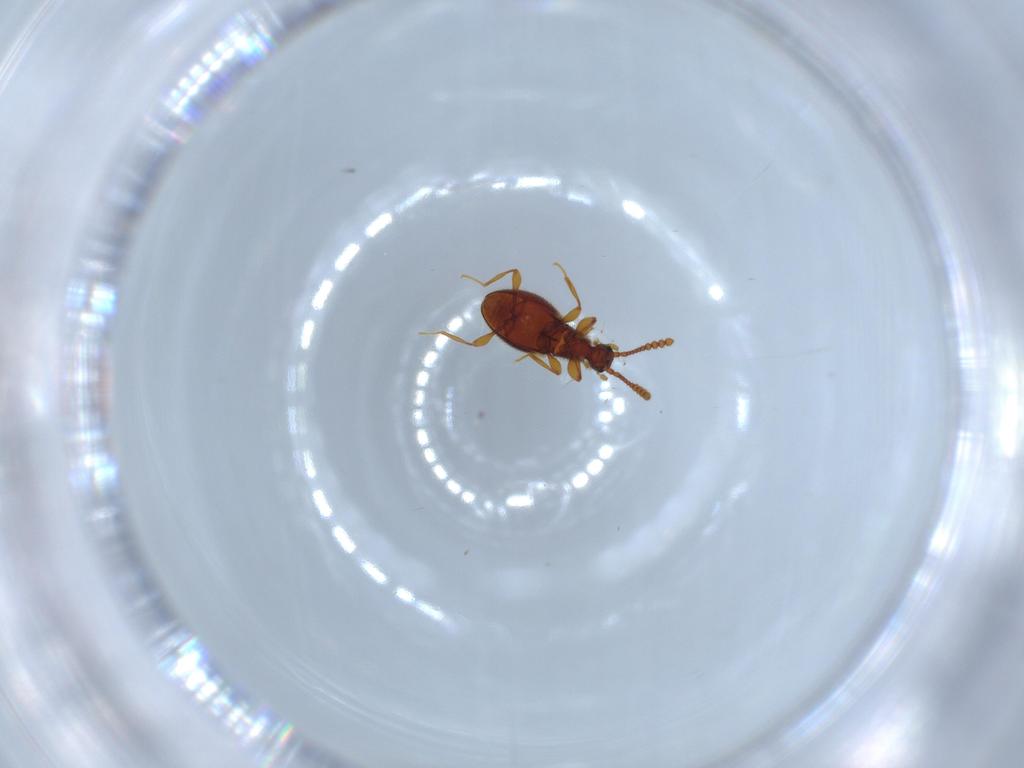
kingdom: Animalia
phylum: Arthropoda
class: Insecta
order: Coleoptera
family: Staphylinidae
